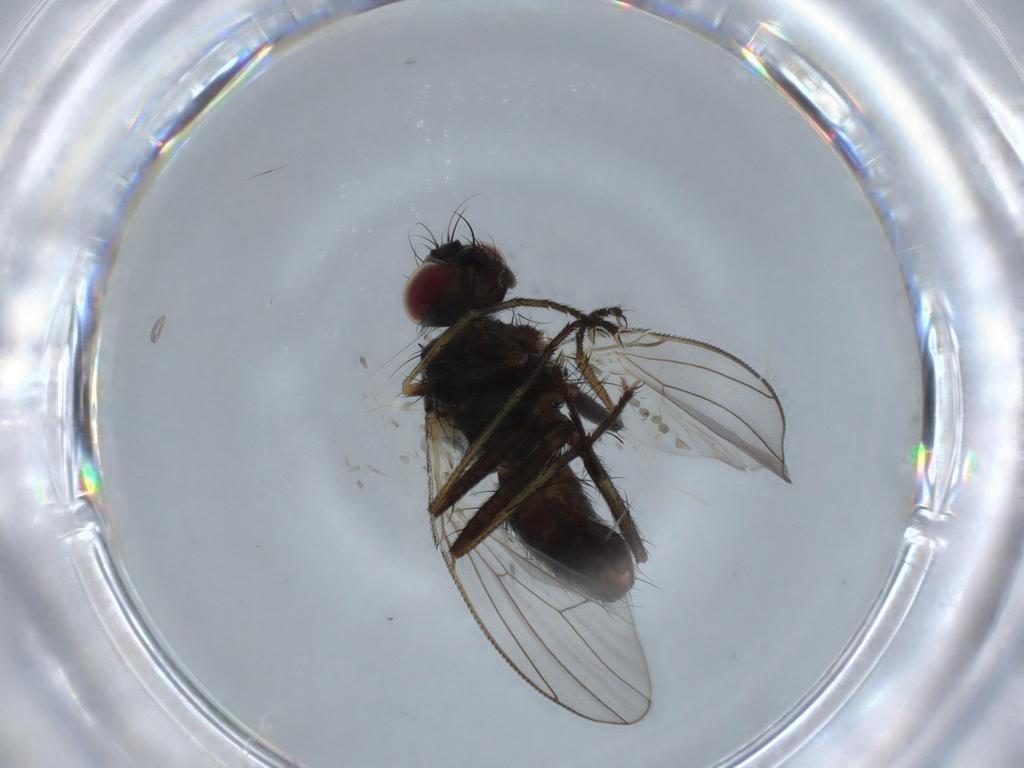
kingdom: Animalia
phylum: Arthropoda
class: Insecta
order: Diptera
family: Muscidae
